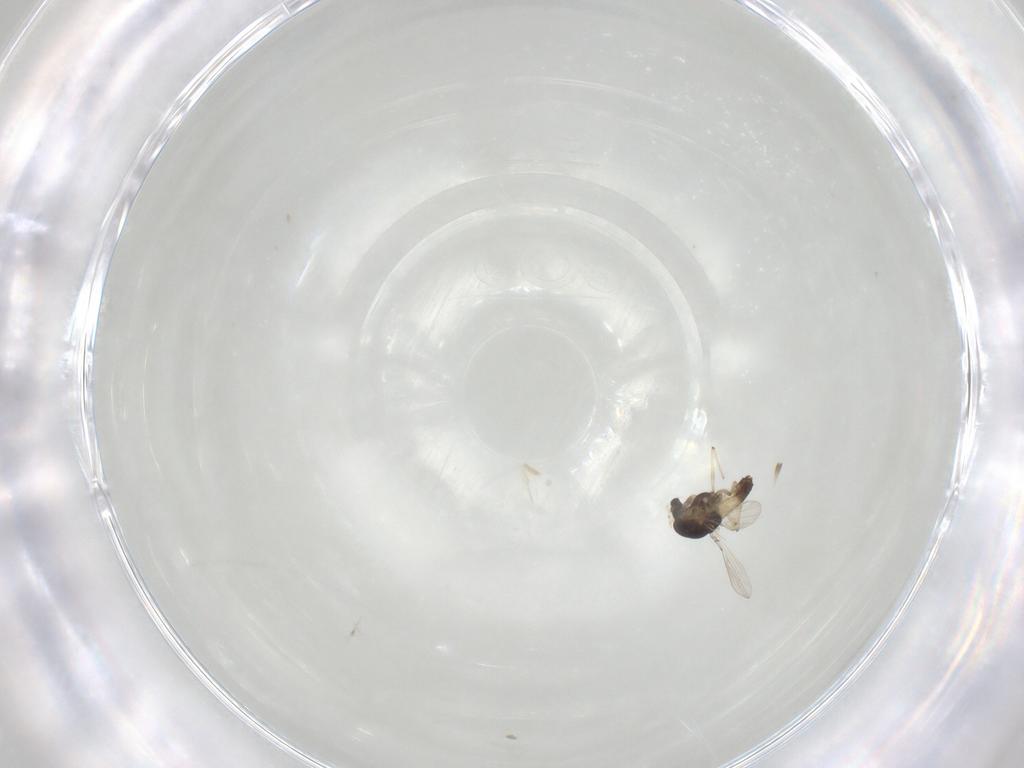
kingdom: Animalia
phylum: Arthropoda
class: Insecta
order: Diptera
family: Chironomidae
